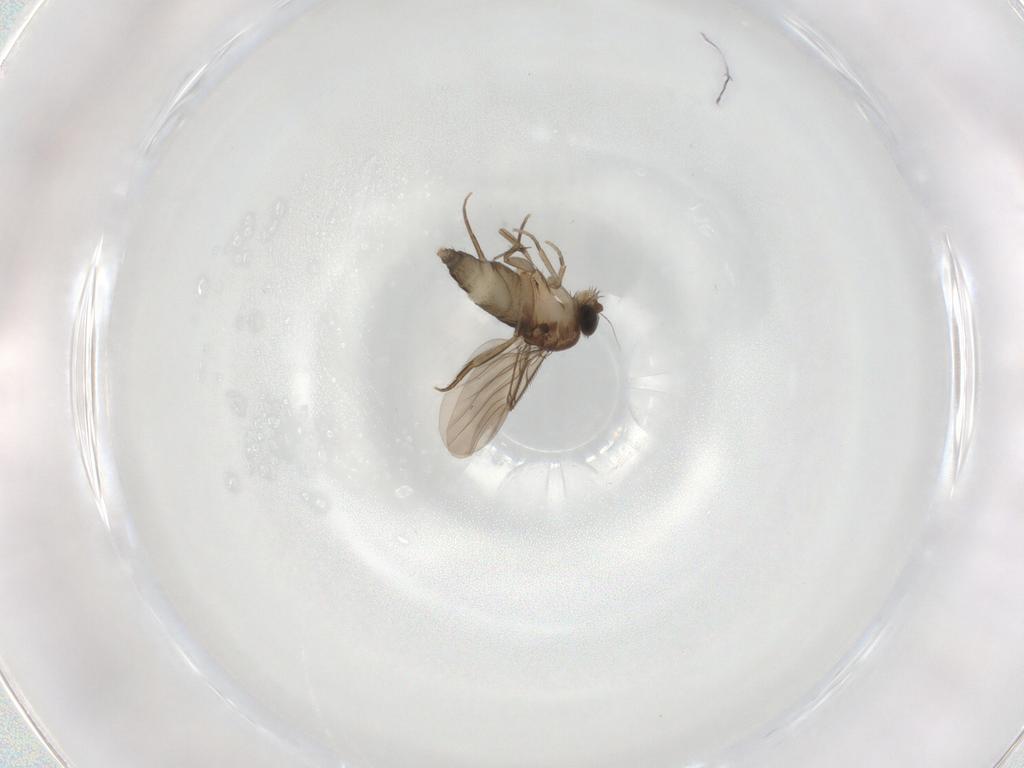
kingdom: Animalia
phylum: Arthropoda
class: Insecta
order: Diptera
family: Phoridae
